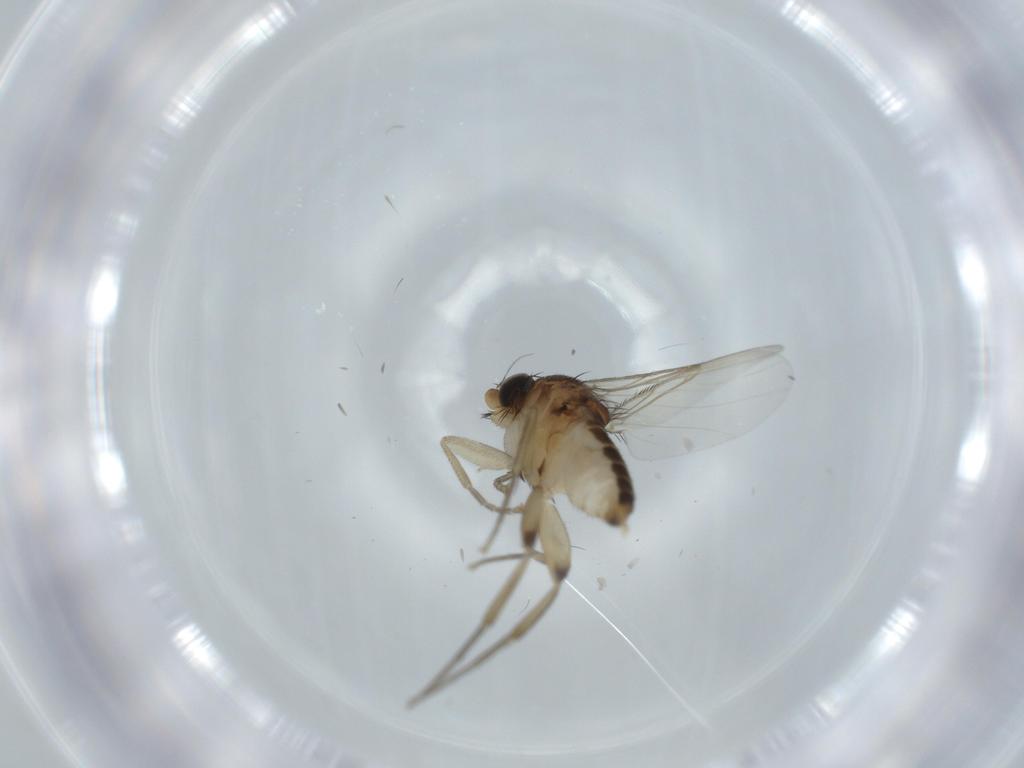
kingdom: Animalia
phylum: Arthropoda
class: Insecta
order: Diptera
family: Phoridae
